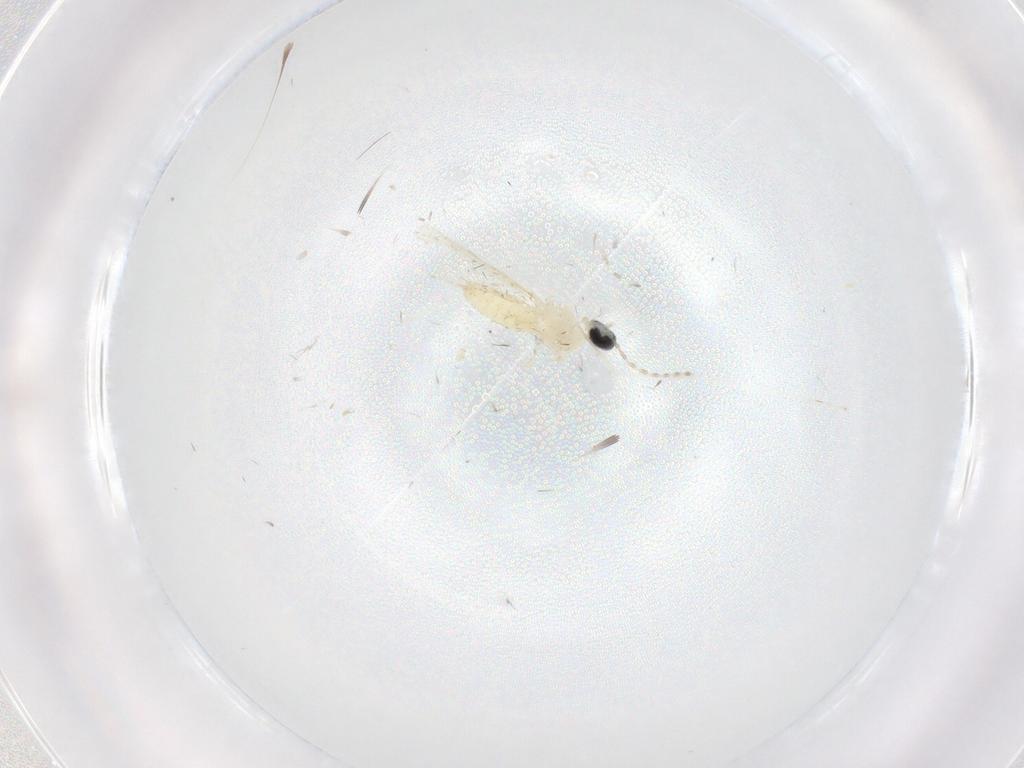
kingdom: Animalia
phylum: Arthropoda
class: Insecta
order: Diptera
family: Cecidomyiidae
